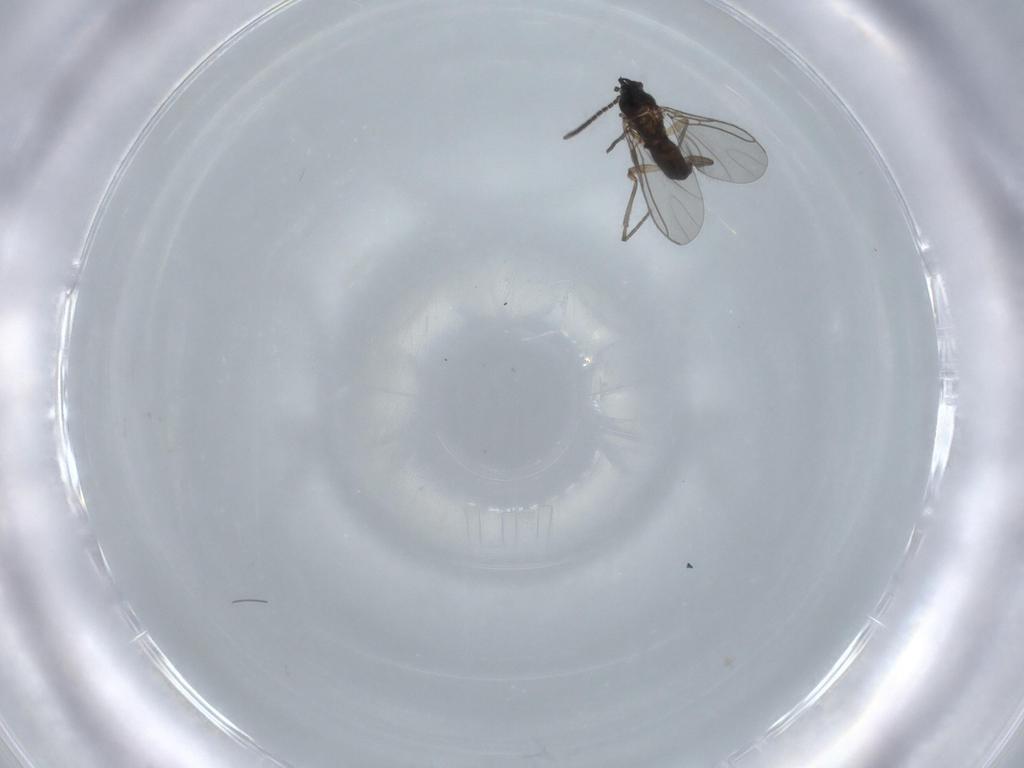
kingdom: Animalia
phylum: Arthropoda
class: Insecta
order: Diptera
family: Sciaridae
